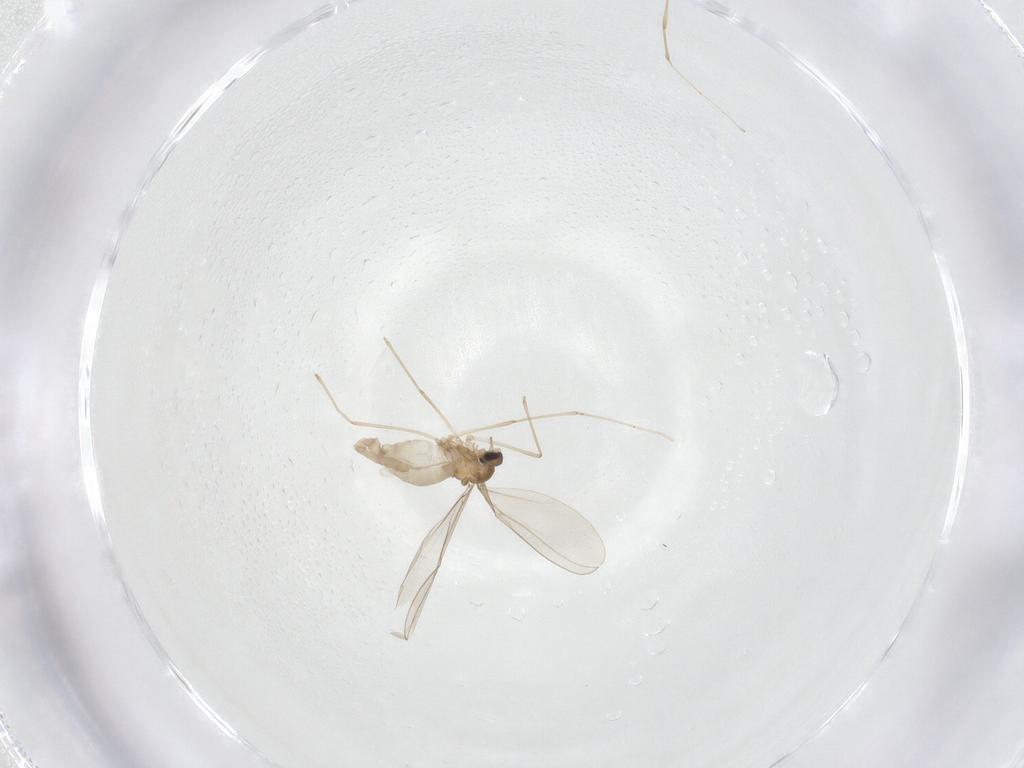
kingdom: Animalia
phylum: Arthropoda
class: Insecta
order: Diptera
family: Cecidomyiidae
